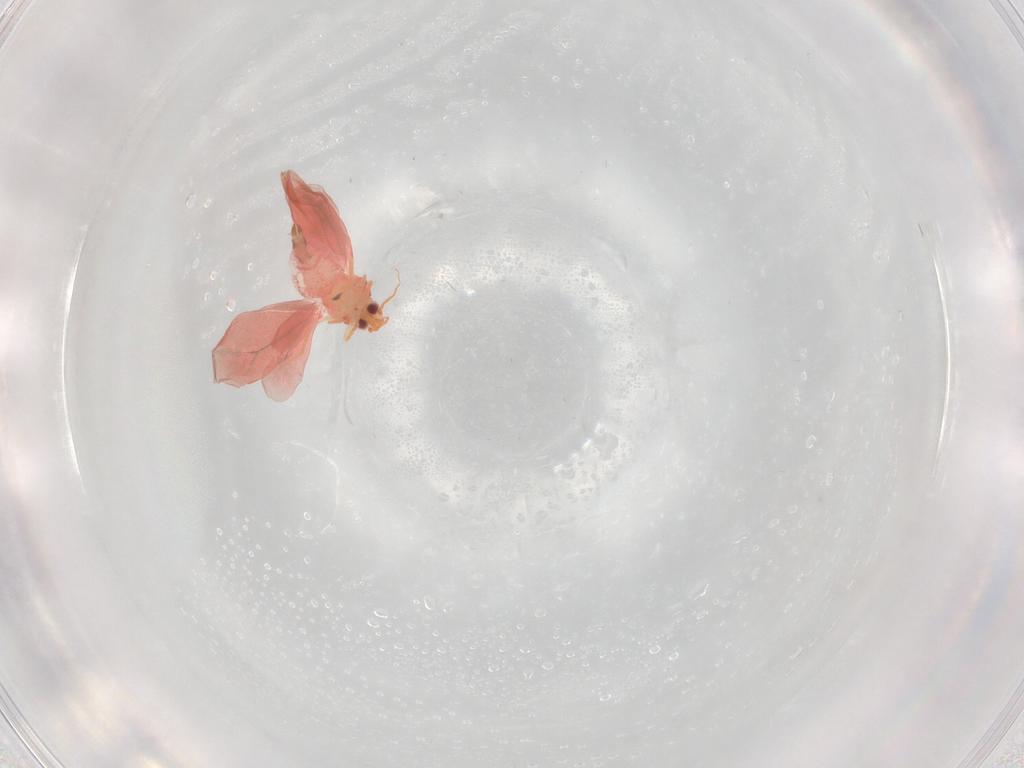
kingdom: Animalia
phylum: Arthropoda
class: Insecta
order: Hemiptera
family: Aleyrodidae
